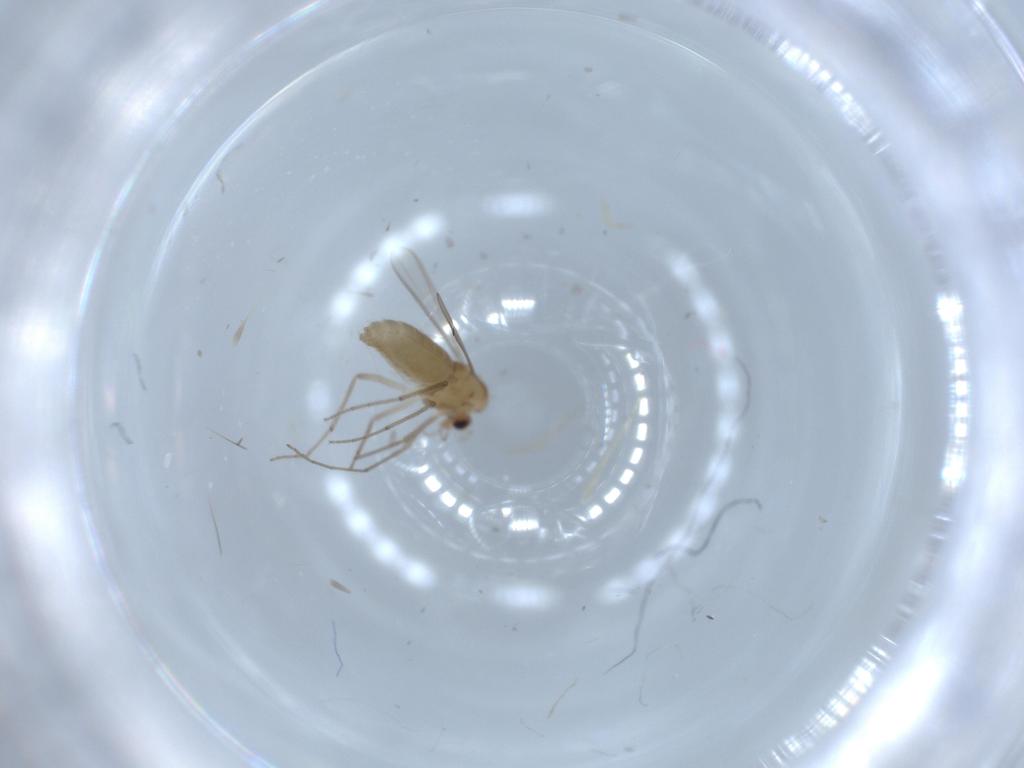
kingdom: Animalia
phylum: Arthropoda
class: Insecta
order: Diptera
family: Chironomidae
